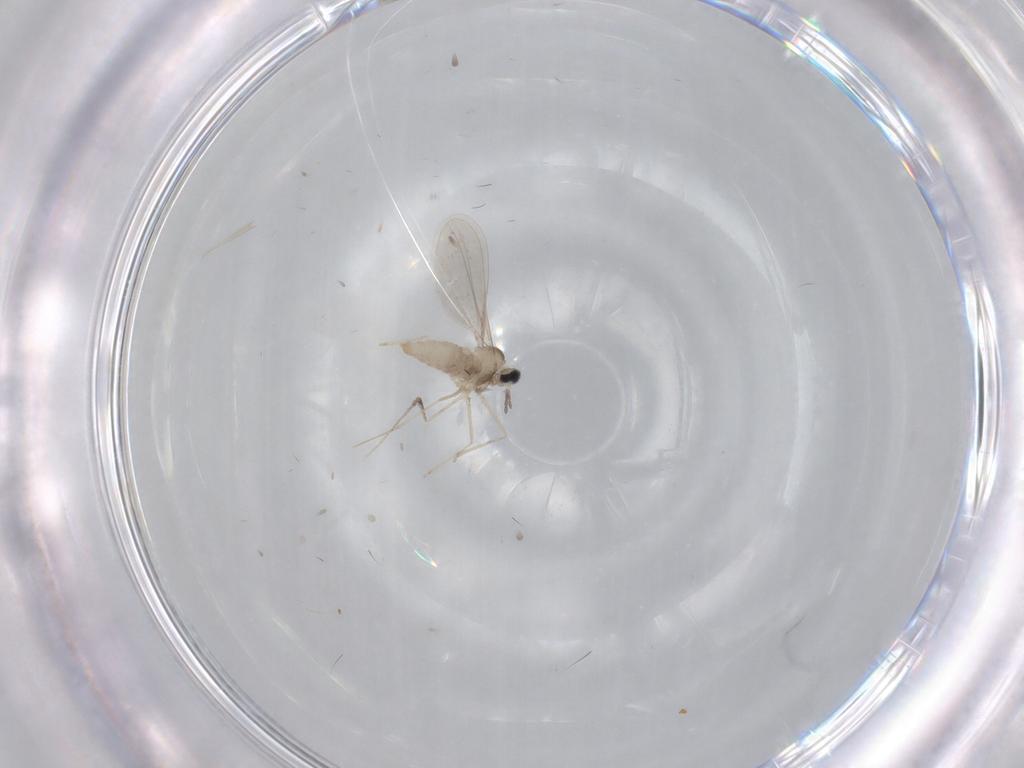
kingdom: Animalia
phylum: Arthropoda
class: Insecta
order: Diptera
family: Cecidomyiidae
